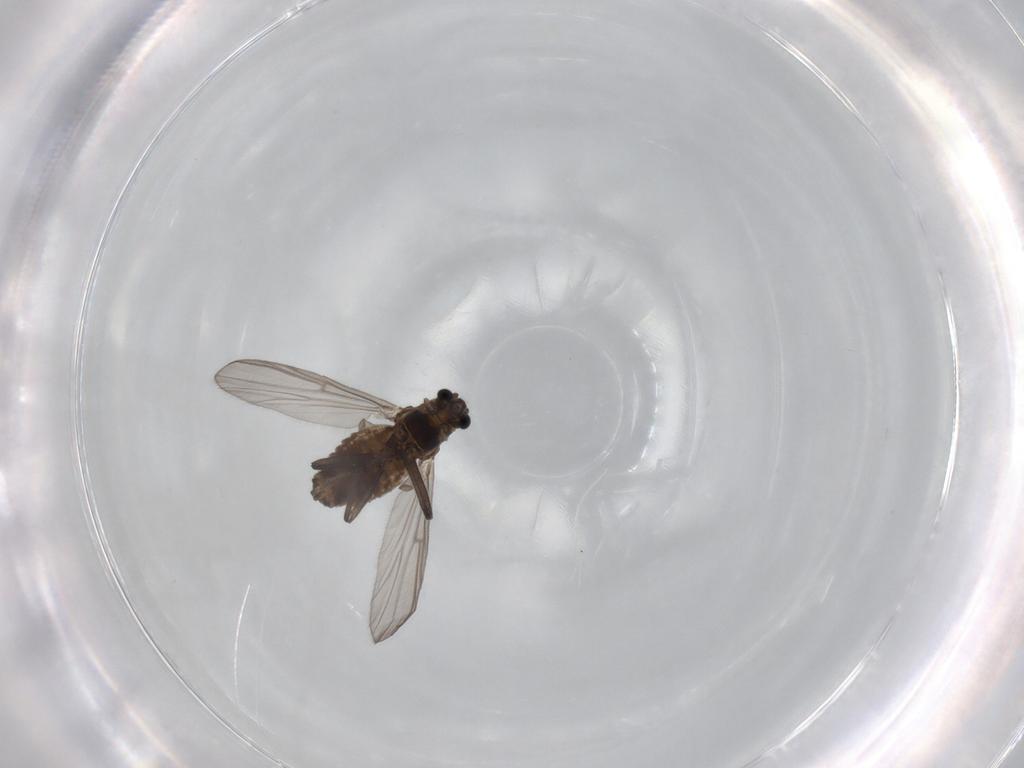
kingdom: Animalia
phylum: Arthropoda
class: Insecta
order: Diptera
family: Chironomidae
